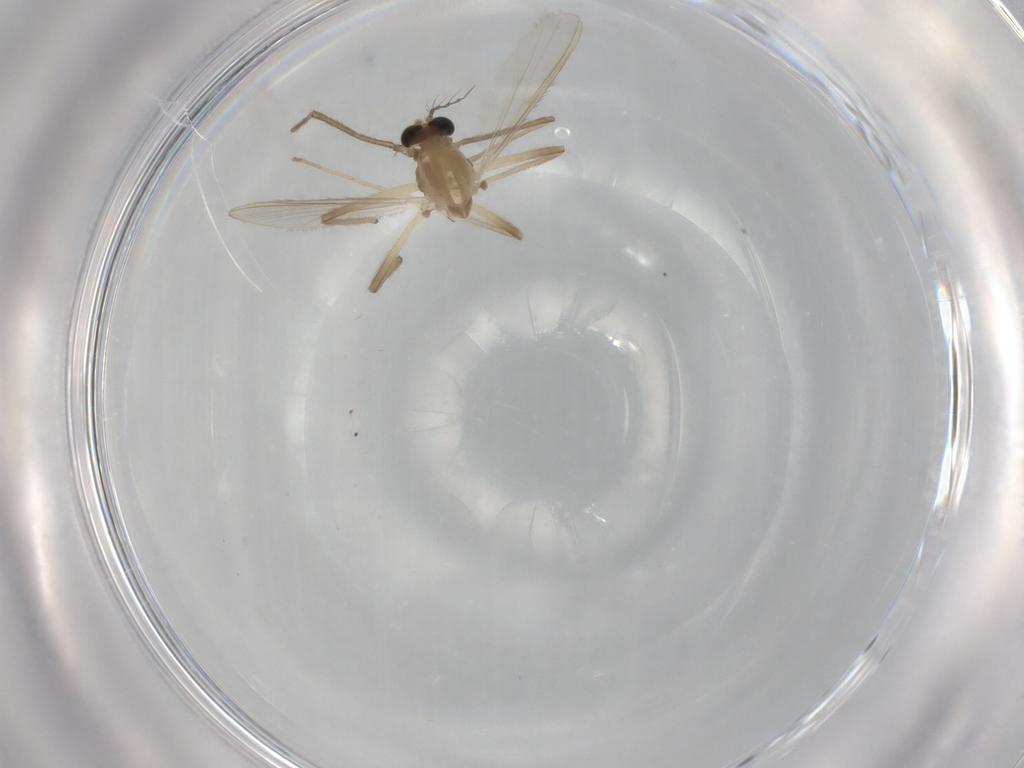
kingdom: Animalia
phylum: Arthropoda
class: Insecta
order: Diptera
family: Chironomidae
